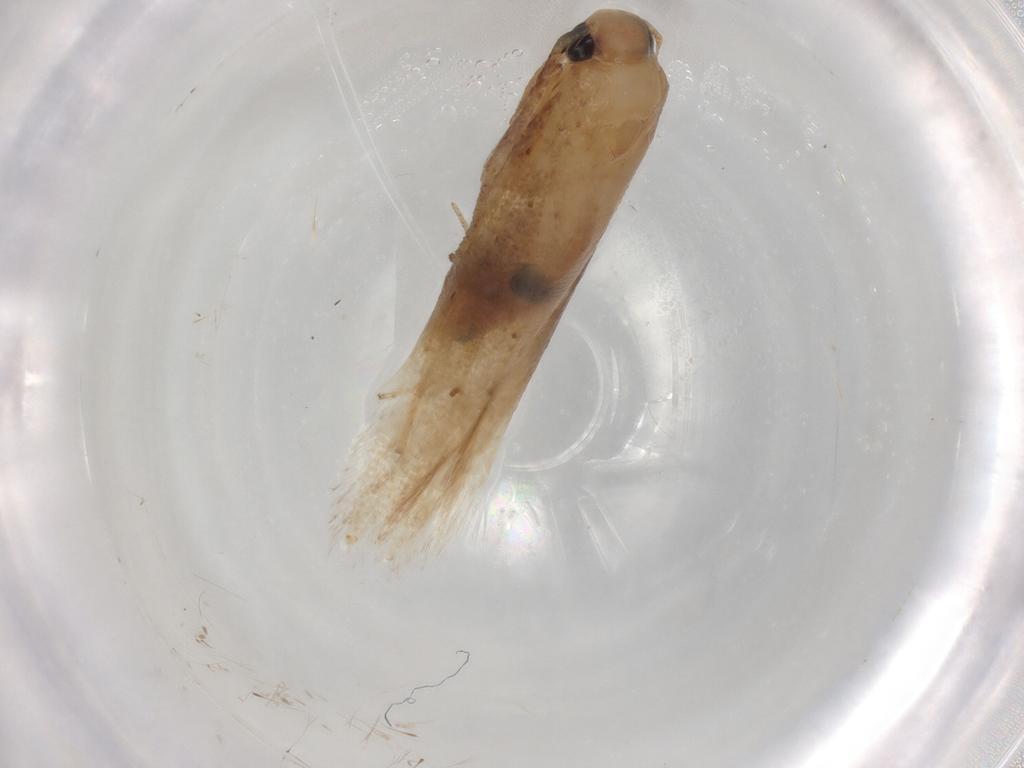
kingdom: Animalia
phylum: Arthropoda
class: Insecta
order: Lepidoptera
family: Gelechiidae
